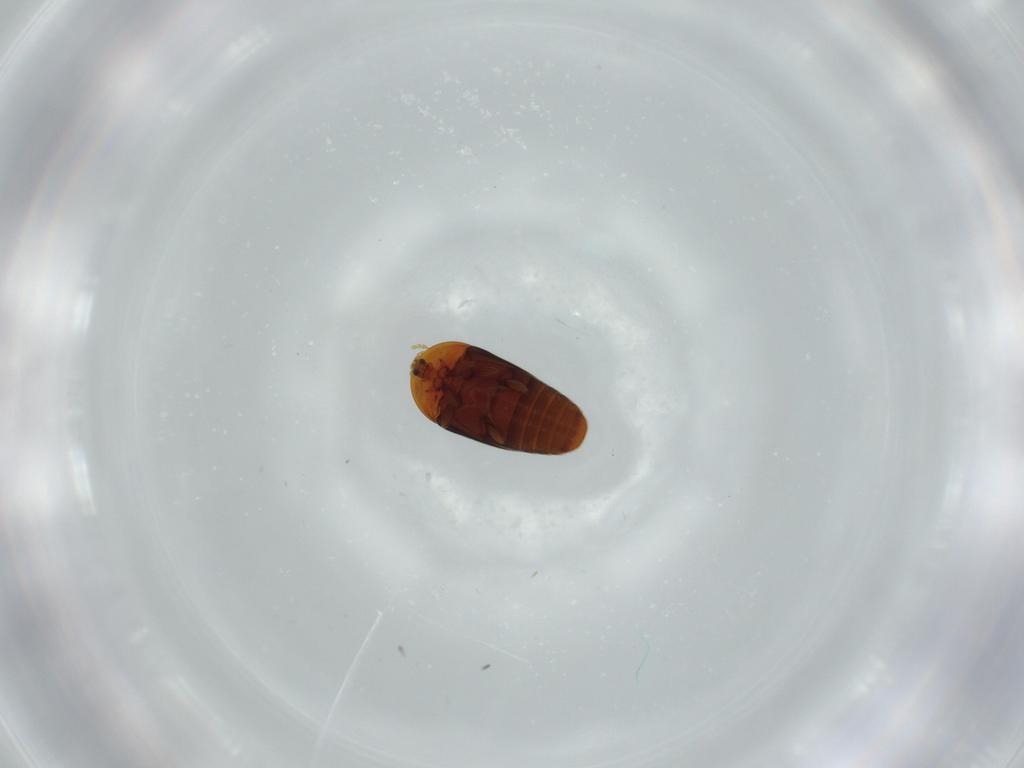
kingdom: Animalia
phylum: Arthropoda
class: Insecta
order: Coleoptera
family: Corylophidae
